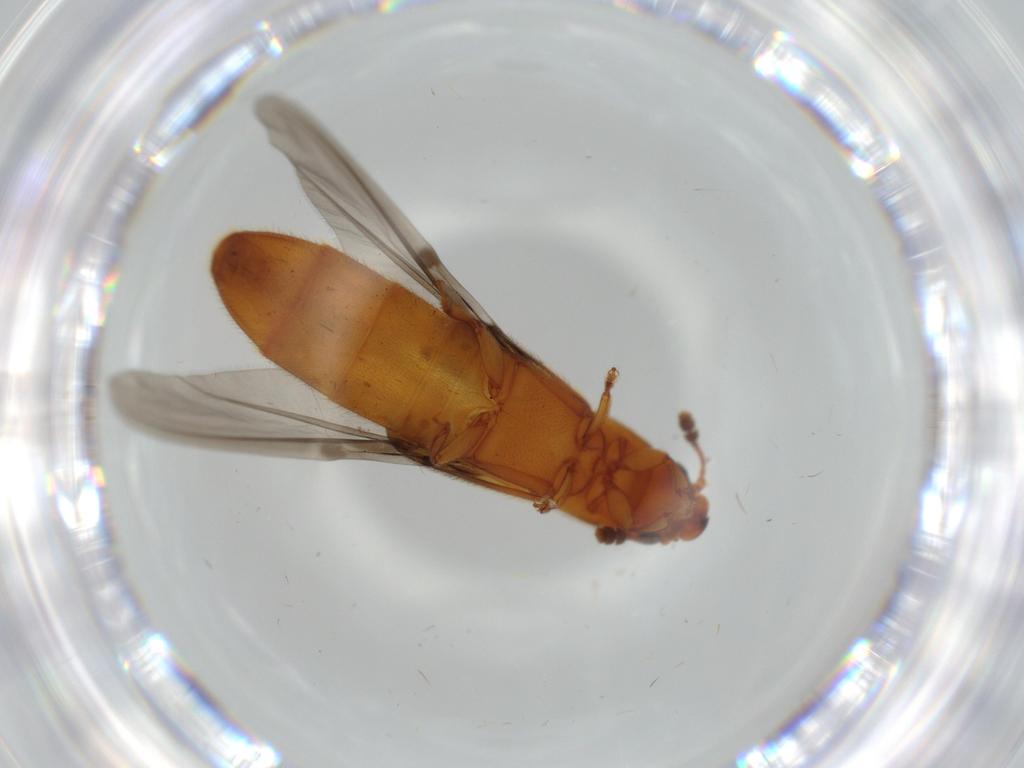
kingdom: Animalia
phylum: Arthropoda
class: Insecta
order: Coleoptera
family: Nitidulidae
